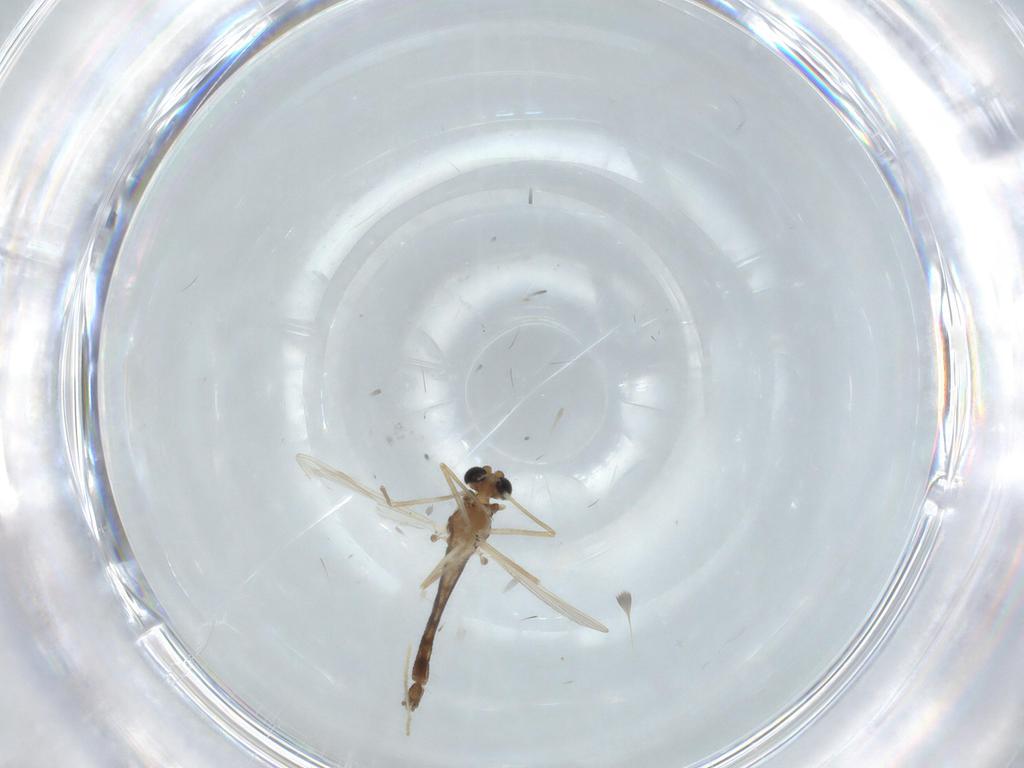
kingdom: Animalia
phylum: Arthropoda
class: Insecta
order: Diptera
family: Chironomidae
